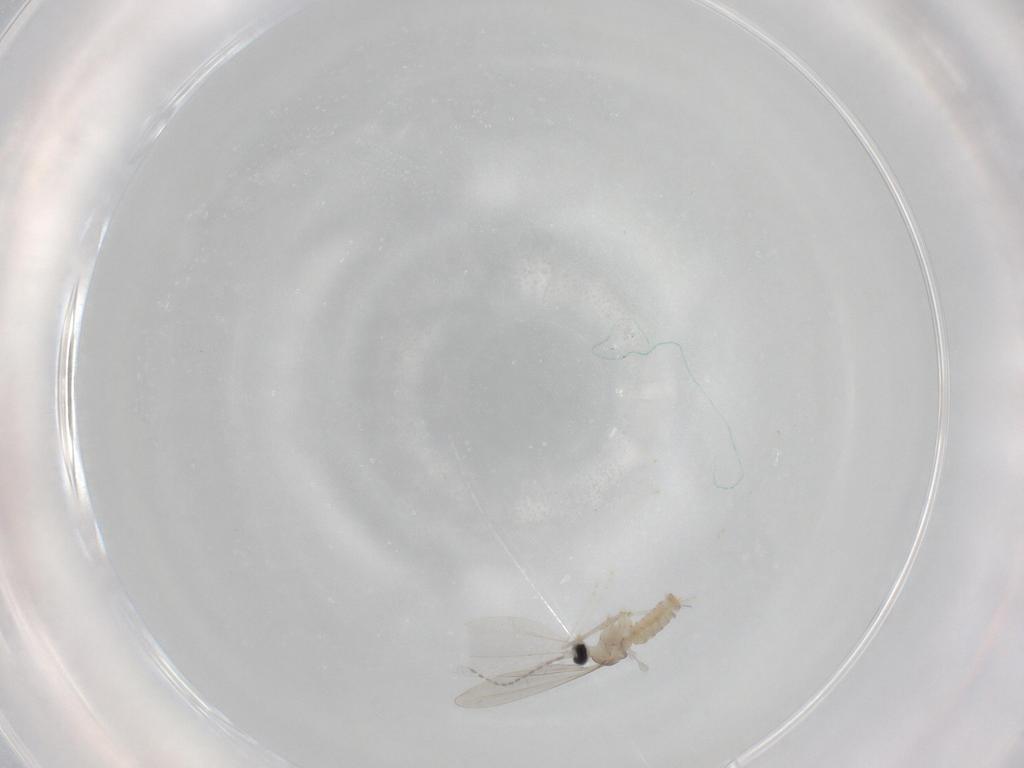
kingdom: Animalia
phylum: Arthropoda
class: Insecta
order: Diptera
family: Cecidomyiidae
